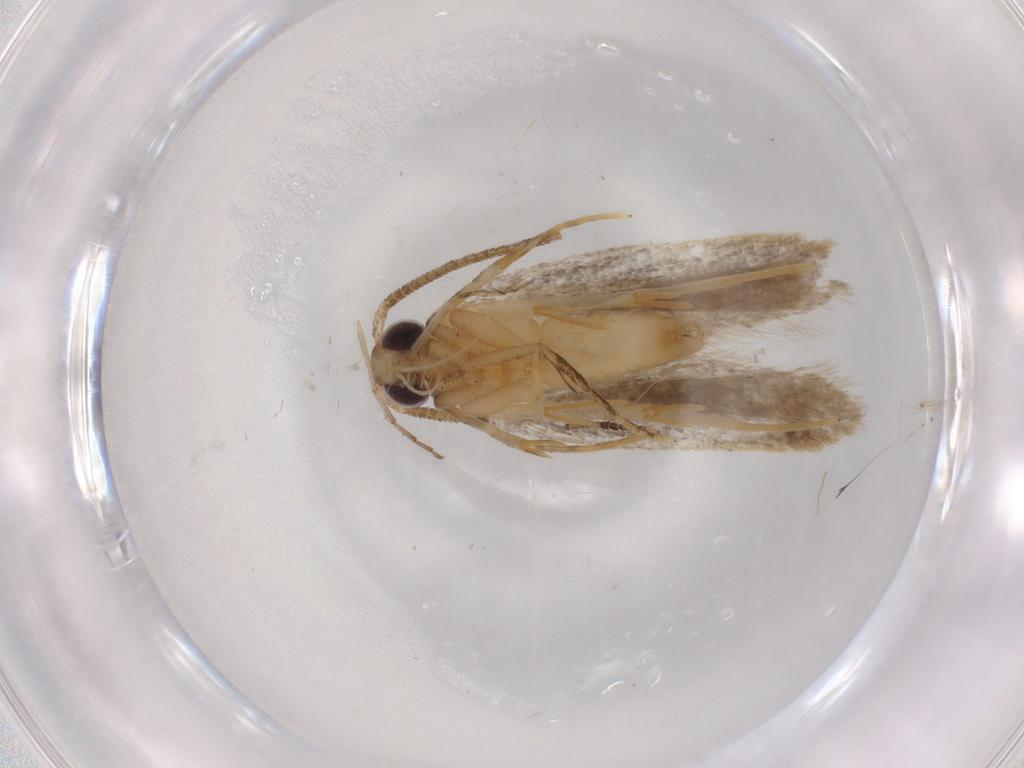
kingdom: Animalia
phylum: Arthropoda
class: Insecta
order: Lepidoptera
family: Autostichidae
